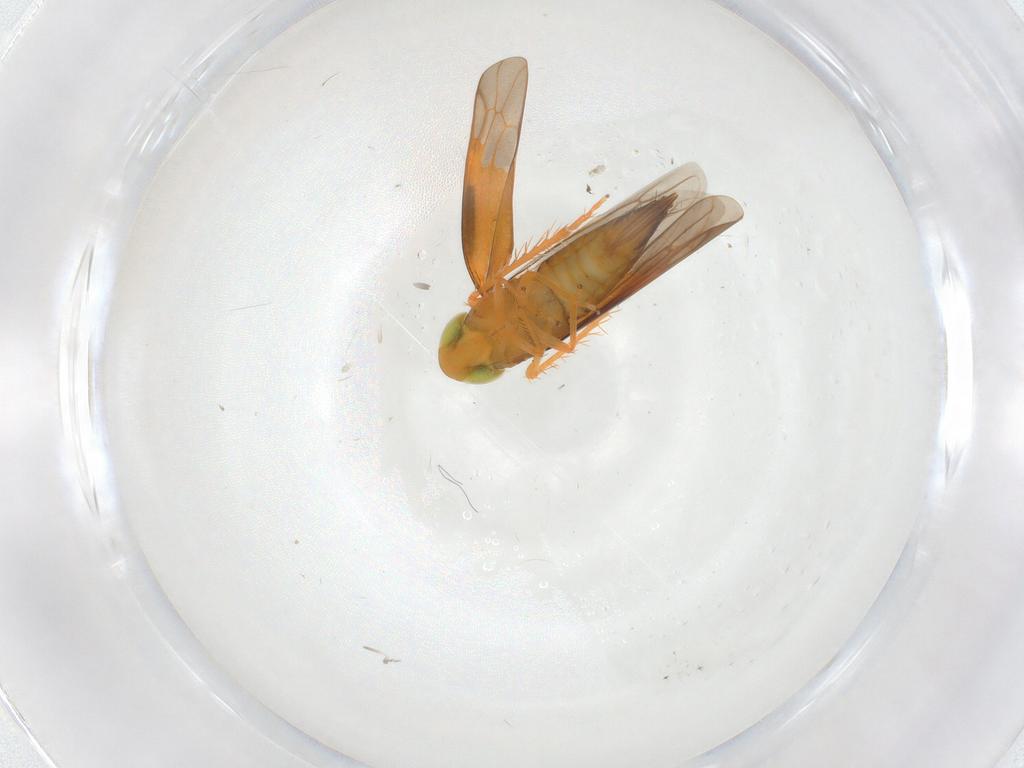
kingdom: Animalia
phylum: Arthropoda
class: Insecta
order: Hemiptera
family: Cicadellidae
